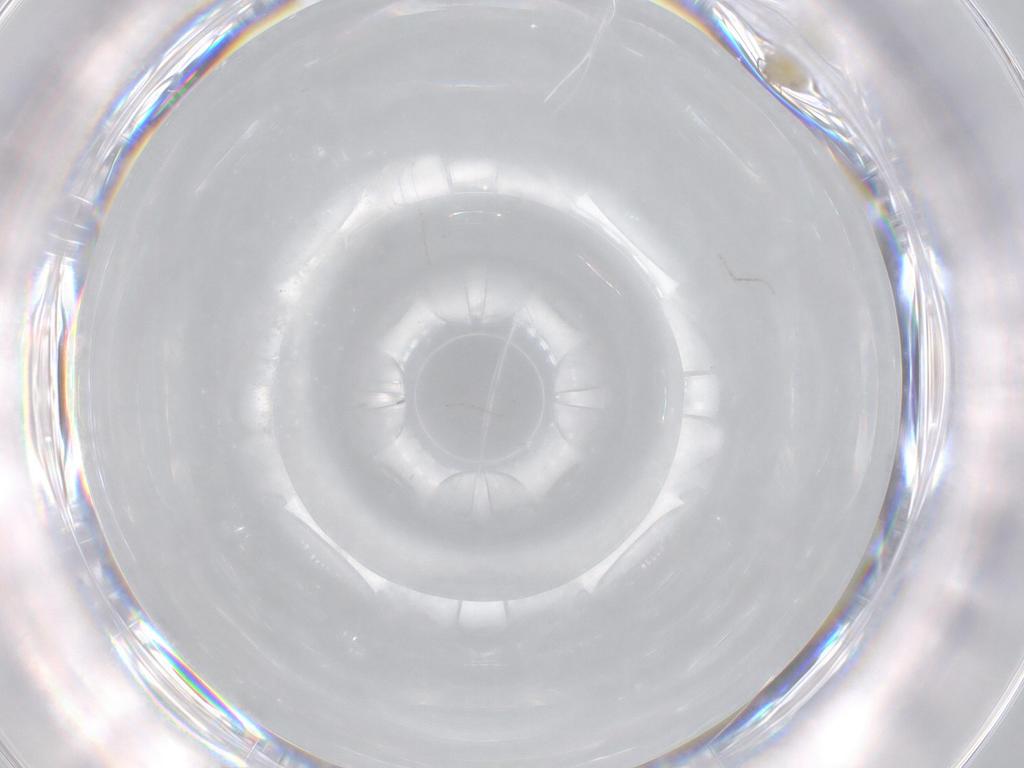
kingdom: Animalia
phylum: Arthropoda
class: Insecta
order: Diptera
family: Cecidomyiidae
